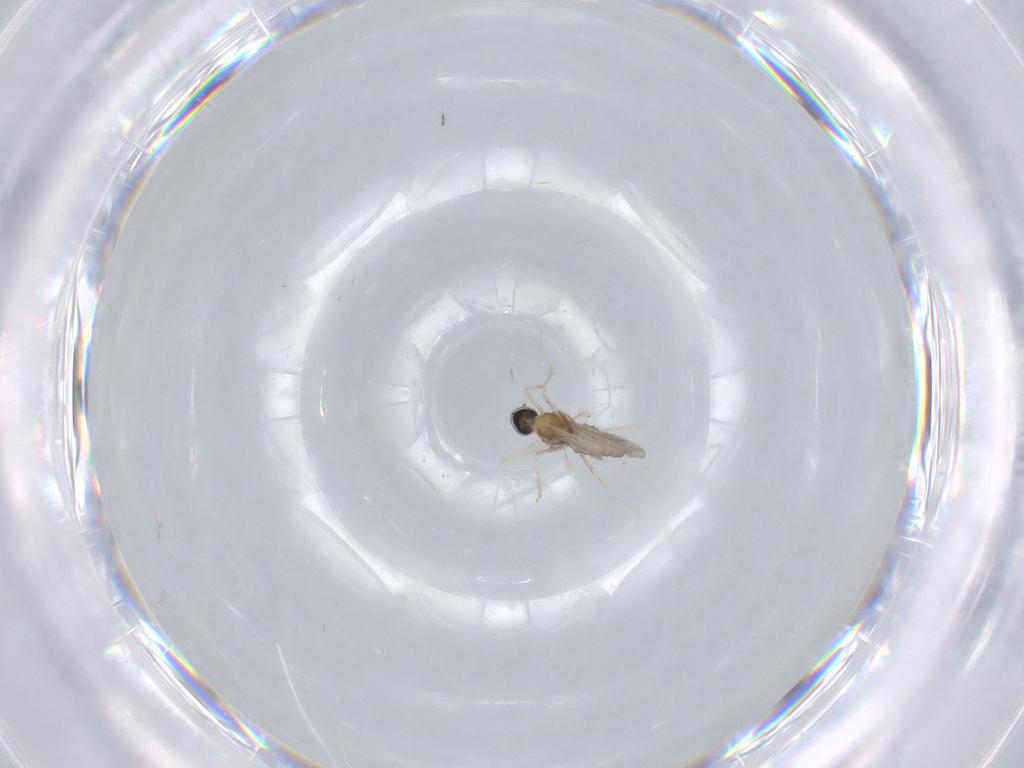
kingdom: Animalia
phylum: Arthropoda
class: Insecta
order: Diptera
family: Cecidomyiidae
